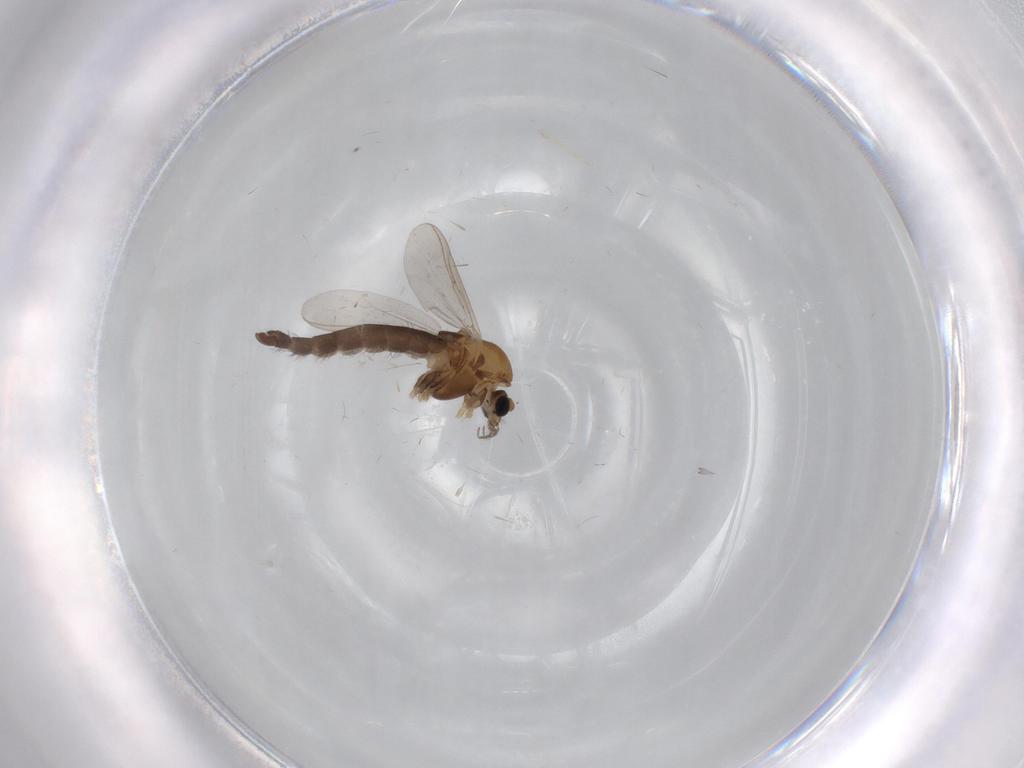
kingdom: Animalia
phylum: Arthropoda
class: Insecta
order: Diptera
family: Chironomidae
